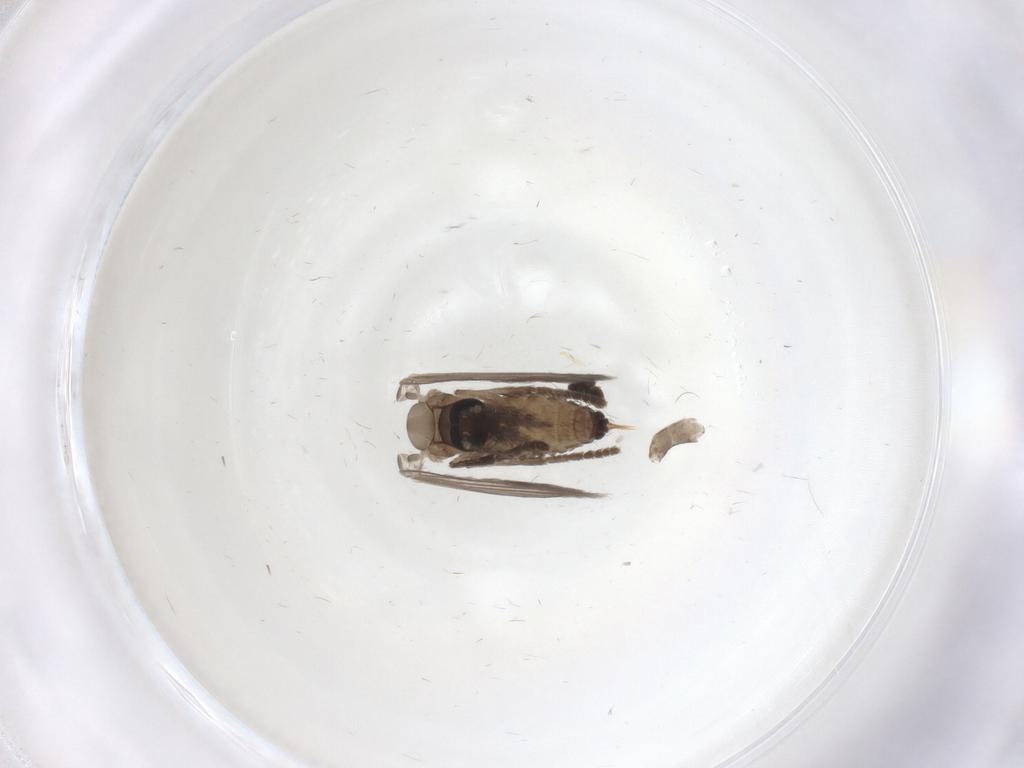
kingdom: Animalia
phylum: Arthropoda
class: Insecta
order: Diptera
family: Psychodidae
